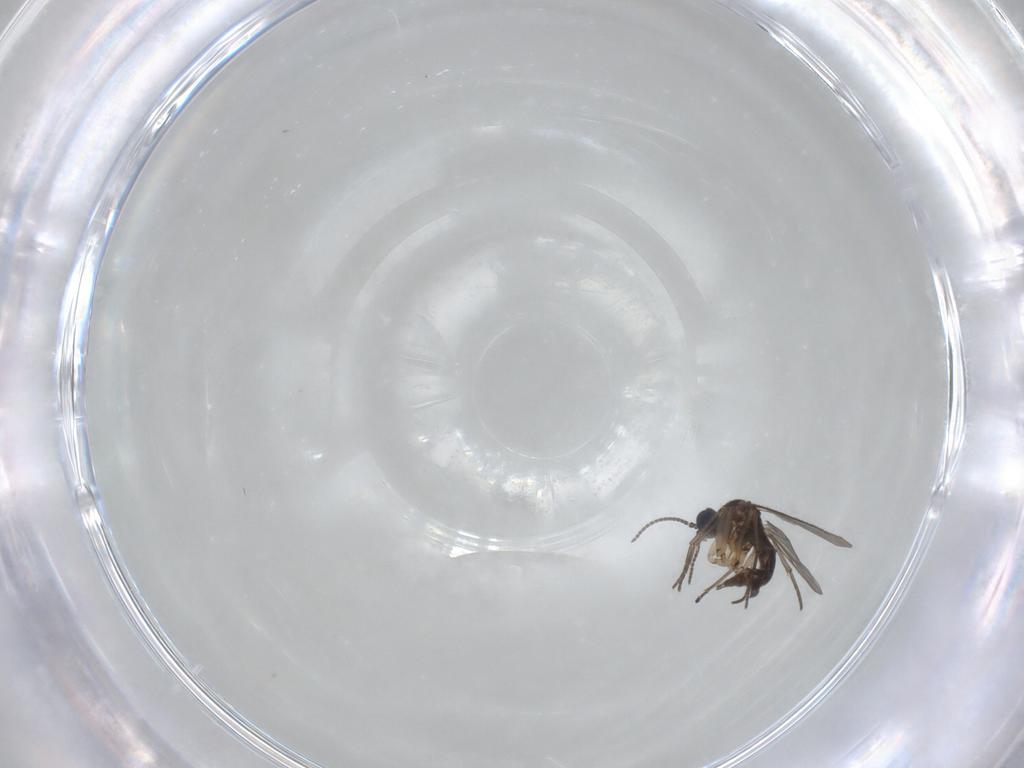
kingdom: Animalia
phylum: Arthropoda
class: Insecta
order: Diptera
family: Sciaridae
